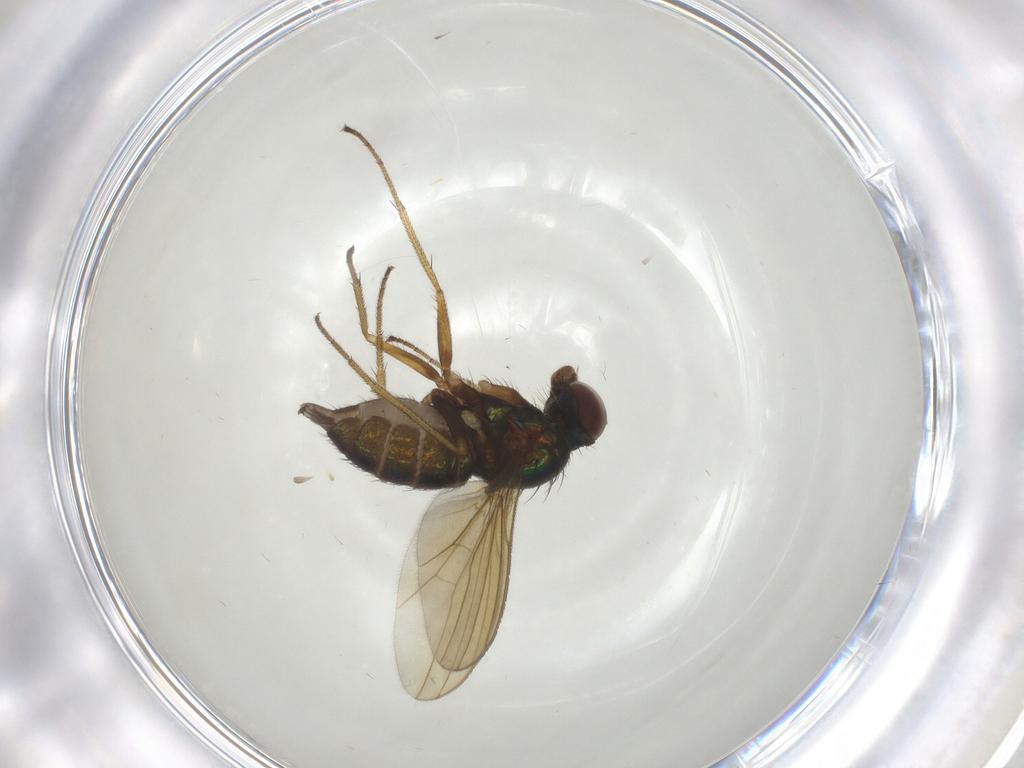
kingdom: Animalia
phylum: Arthropoda
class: Insecta
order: Diptera
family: Dolichopodidae
